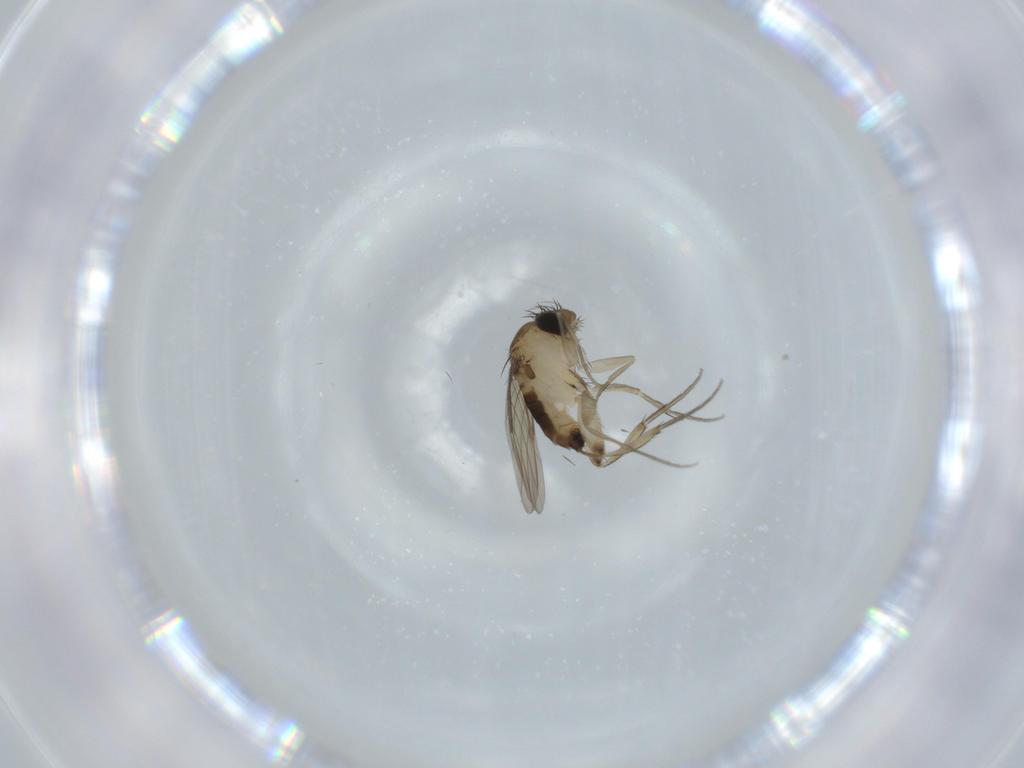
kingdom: Animalia
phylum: Arthropoda
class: Insecta
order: Diptera
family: Phoridae
